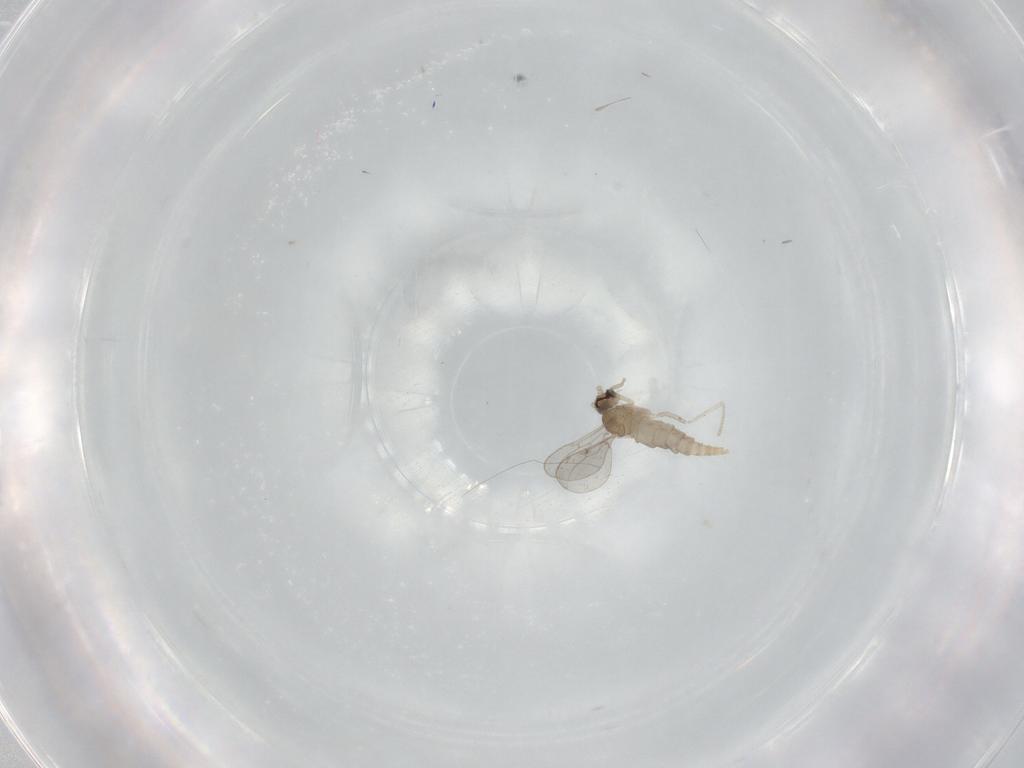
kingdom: Animalia
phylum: Arthropoda
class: Insecta
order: Diptera
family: Cecidomyiidae
